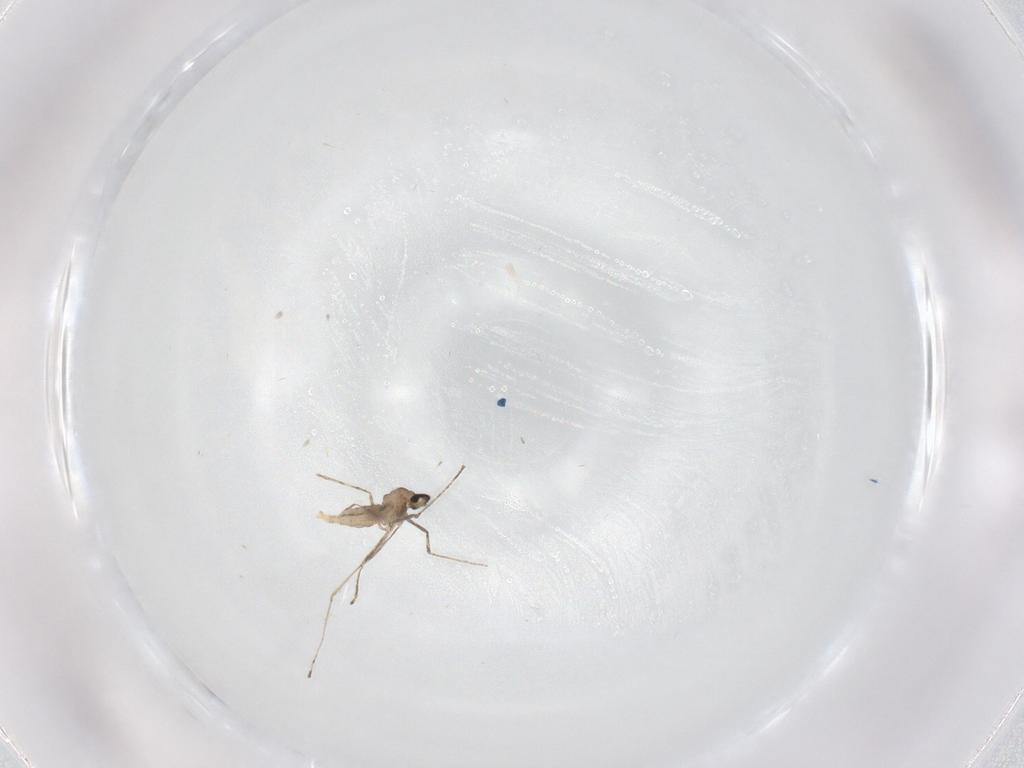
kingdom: Animalia
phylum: Arthropoda
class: Insecta
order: Diptera
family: Cecidomyiidae
